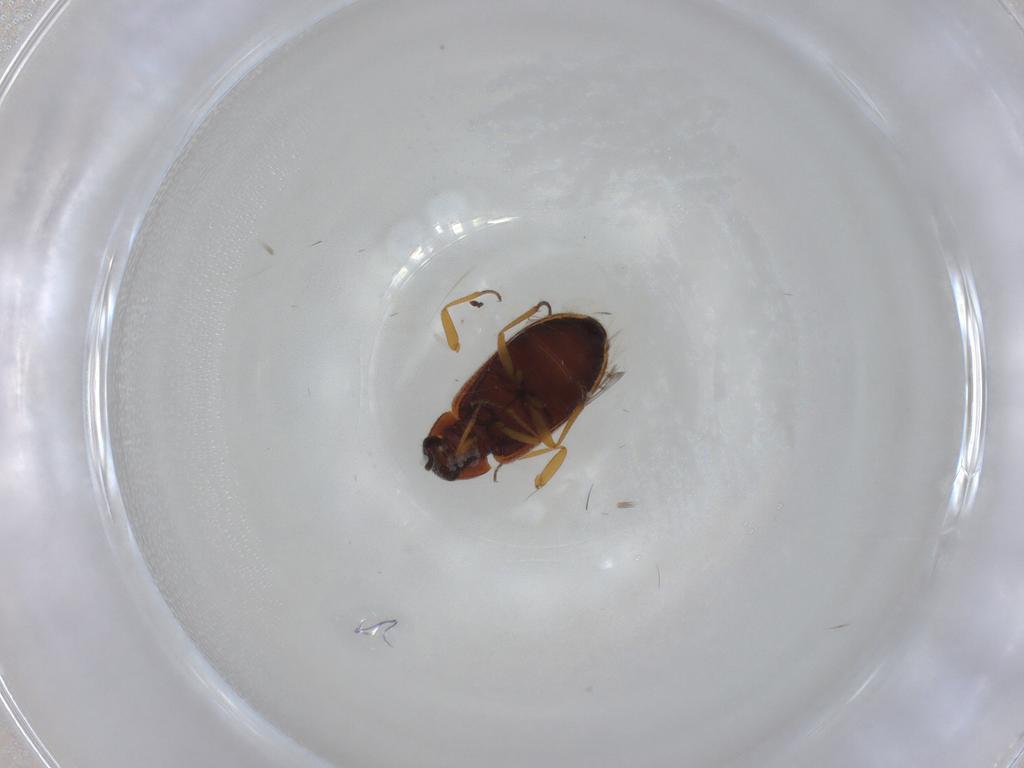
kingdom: Animalia
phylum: Arthropoda
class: Insecta
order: Coleoptera
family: Rhadalidae
